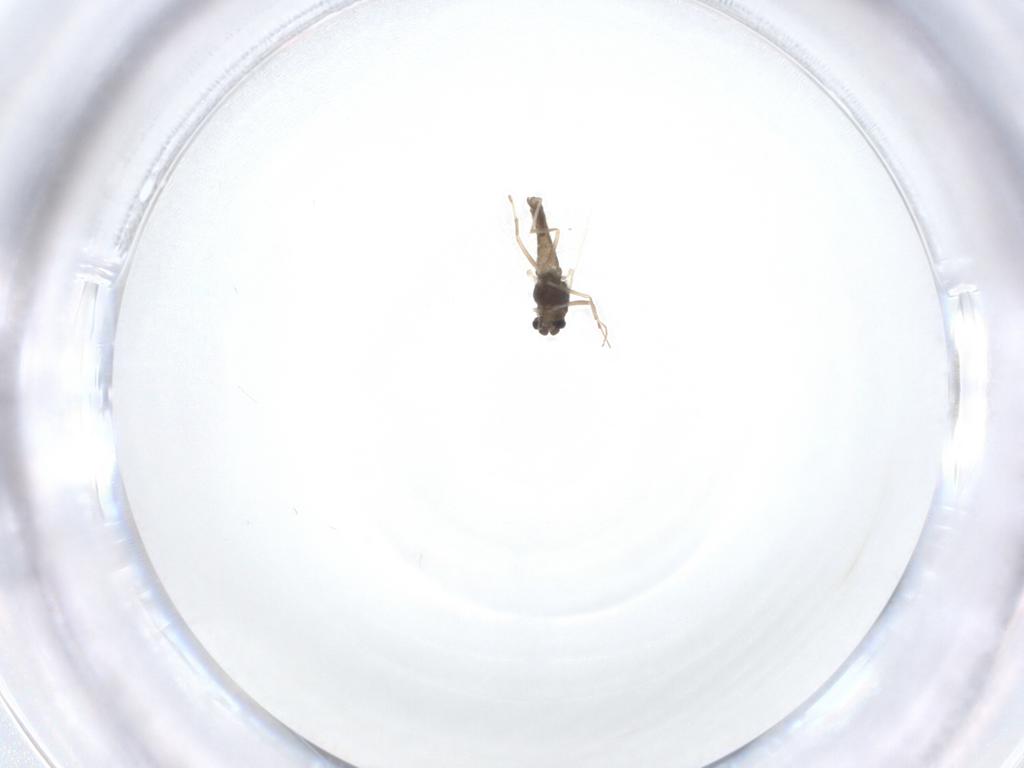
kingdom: Animalia
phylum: Arthropoda
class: Insecta
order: Diptera
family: Chironomidae
